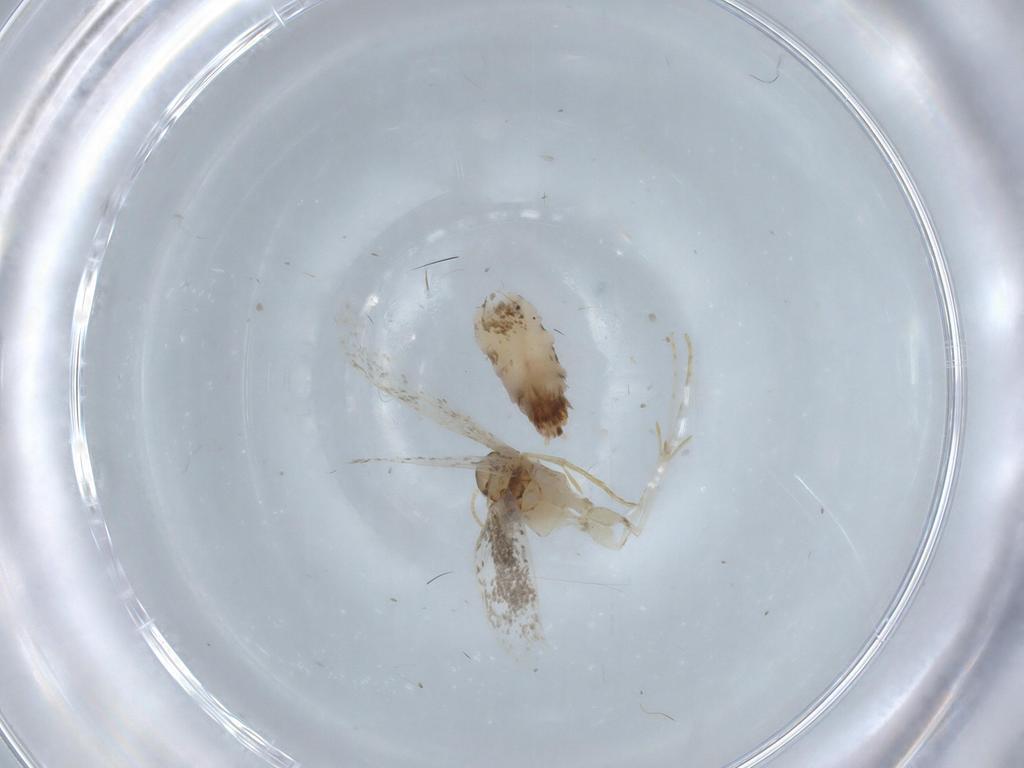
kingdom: Animalia
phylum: Arthropoda
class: Insecta
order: Lepidoptera
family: Dryadaulidae
